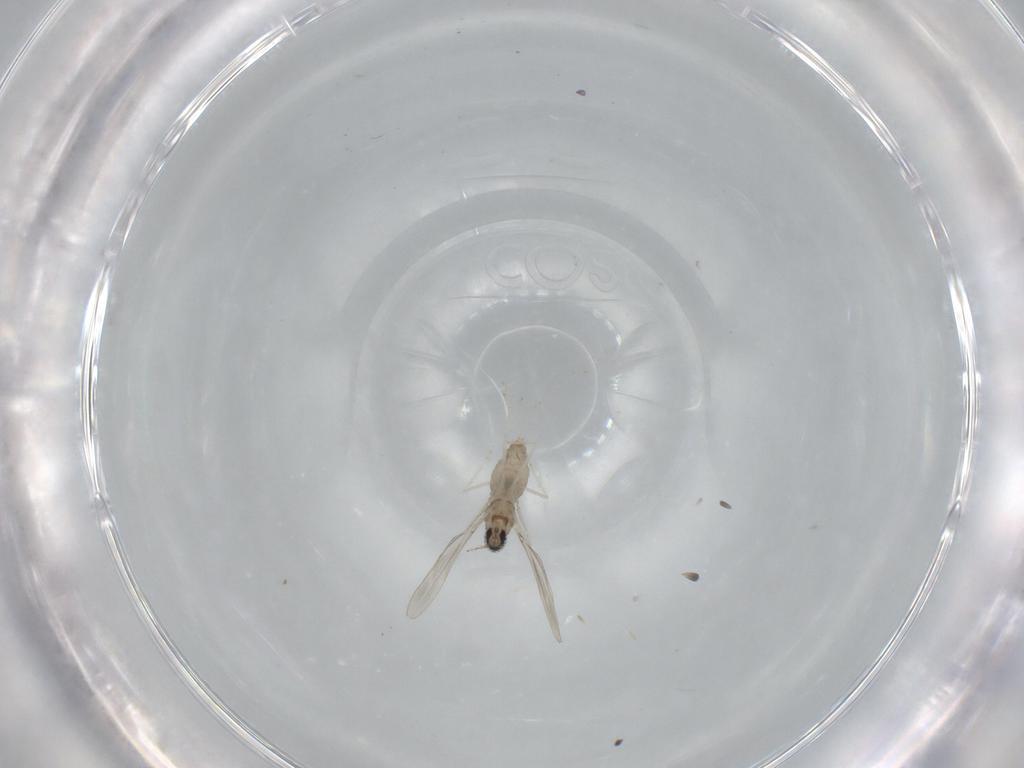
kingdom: Animalia
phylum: Arthropoda
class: Insecta
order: Diptera
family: Cecidomyiidae
